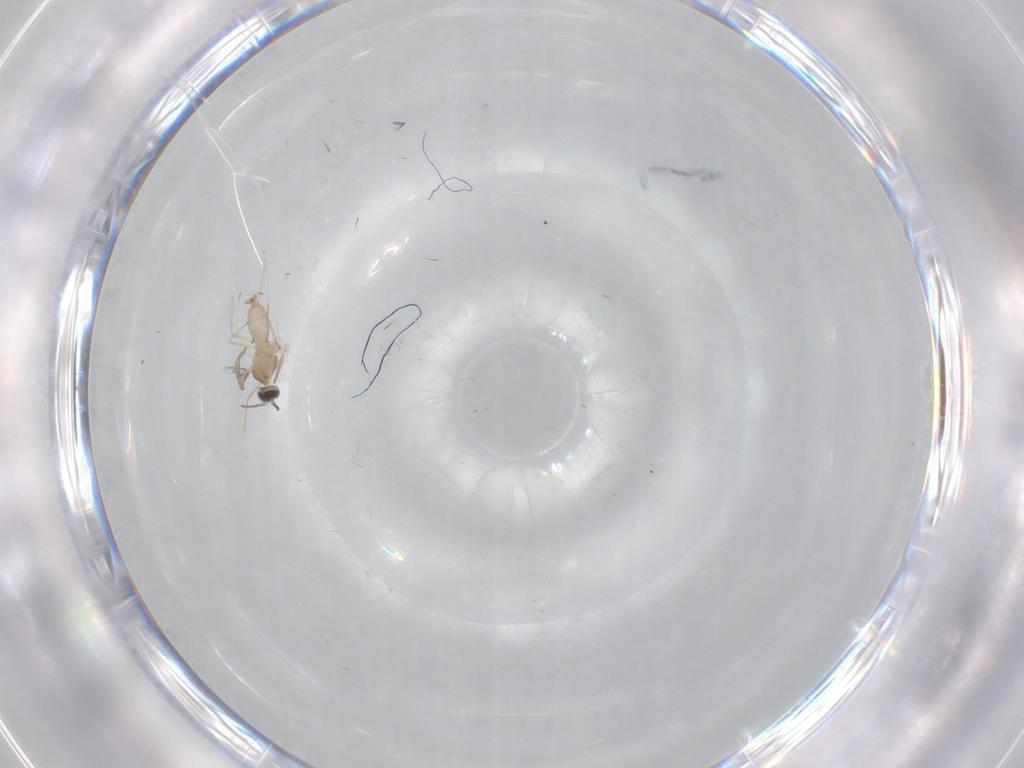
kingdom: Animalia
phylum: Arthropoda
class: Insecta
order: Diptera
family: Cecidomyiidae
